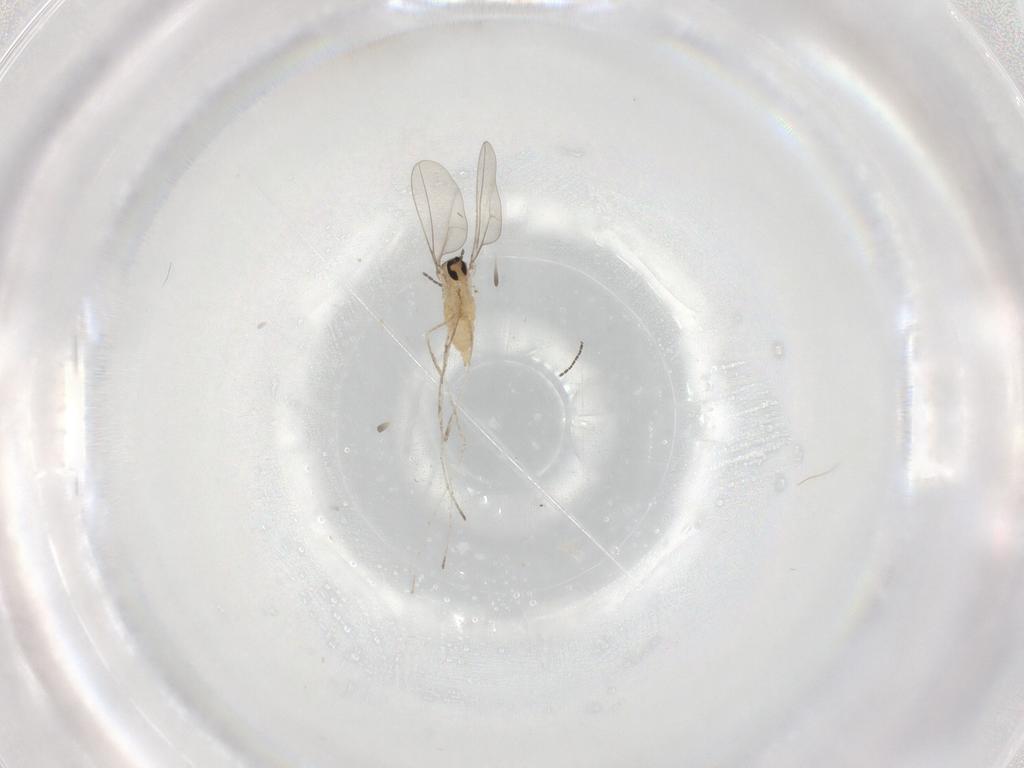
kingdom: Animalia
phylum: Arthropoda
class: Insecta
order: Diptera
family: Cecidomyiidae
